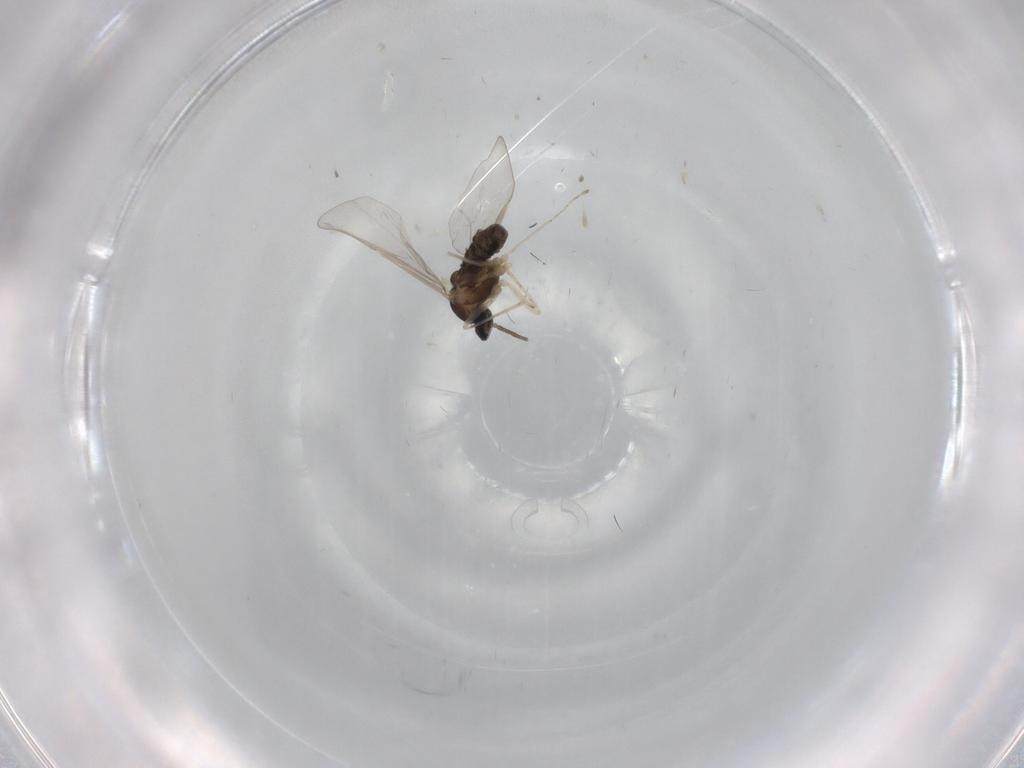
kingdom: Animalia
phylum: Arthropoda
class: Insecta
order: Diptera
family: Cecidomyiidae
